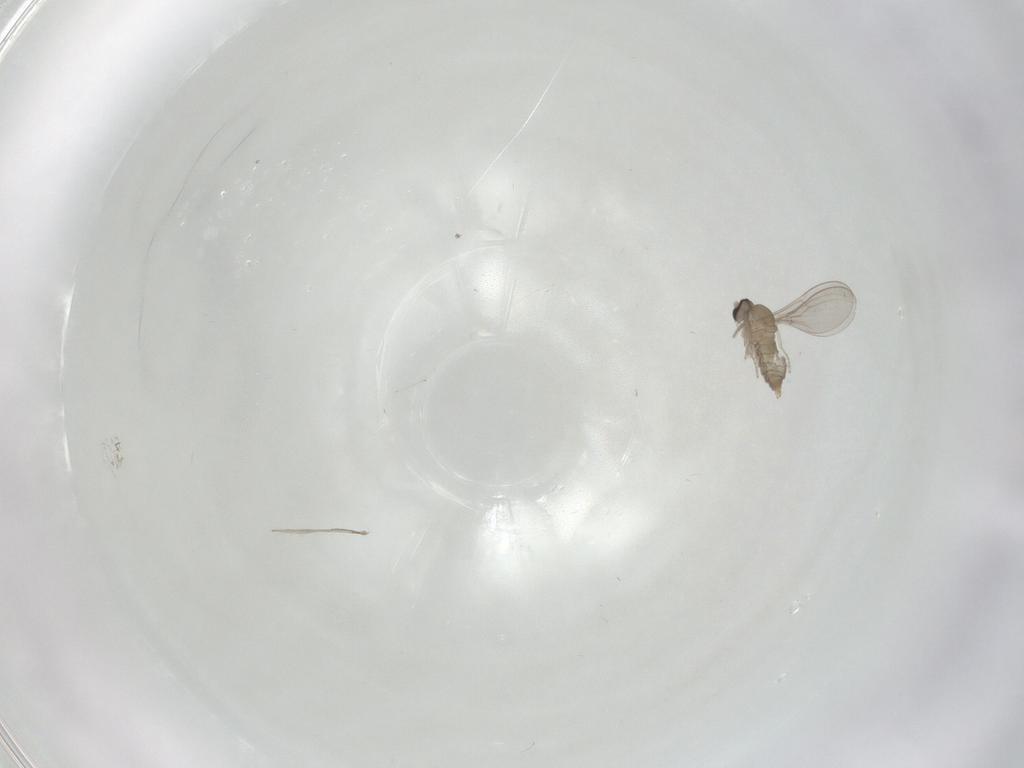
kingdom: Animalia
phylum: Arthropoda
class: Insecta
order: Diptera
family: Cecidomyiidae
